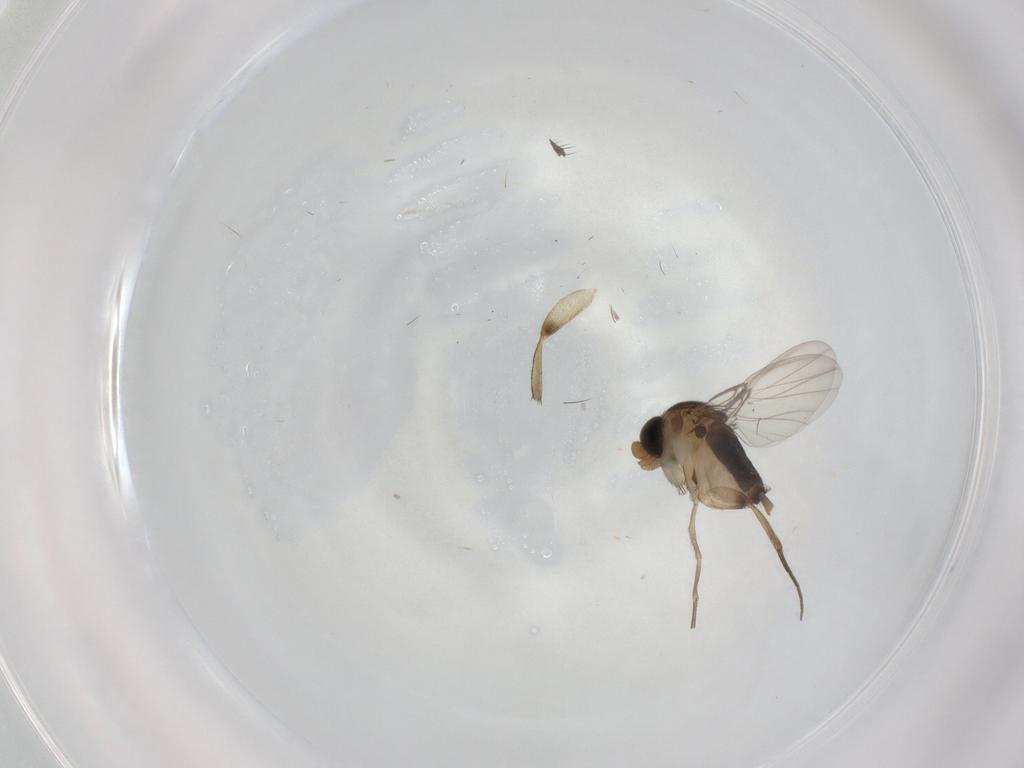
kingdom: Animalia
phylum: Arthropoda
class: Insecta
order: Diptera
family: Phoridae
